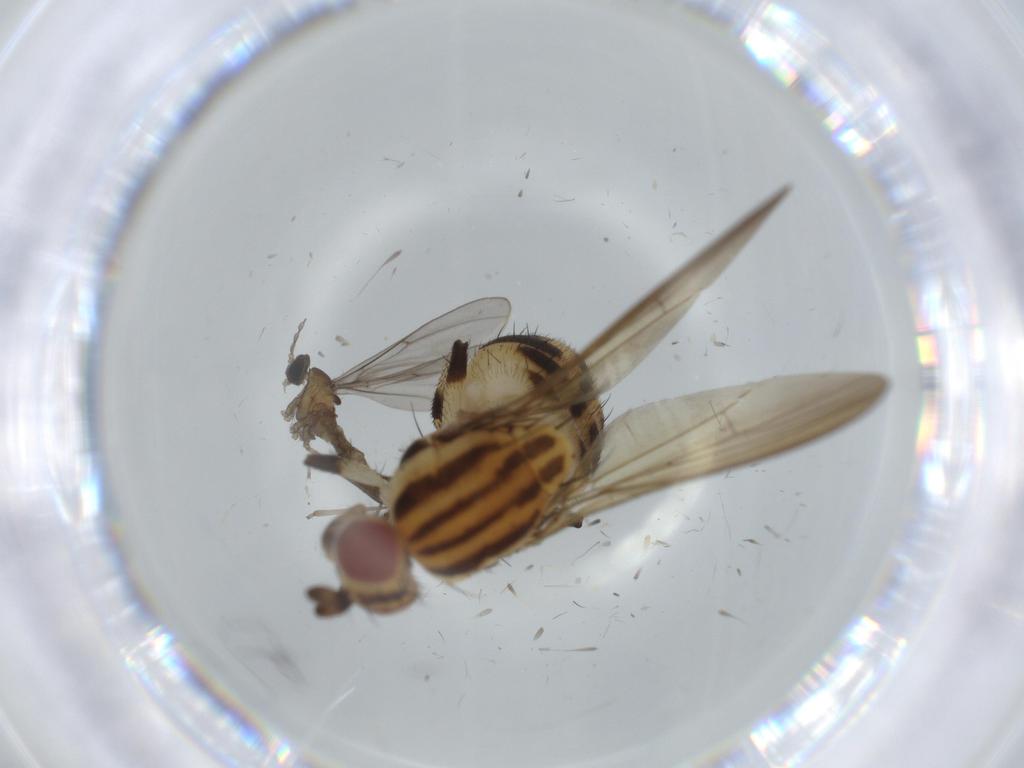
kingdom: Animalia
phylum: Arthropoda
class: Insecta
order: Diptera
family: Lauxaniidae
